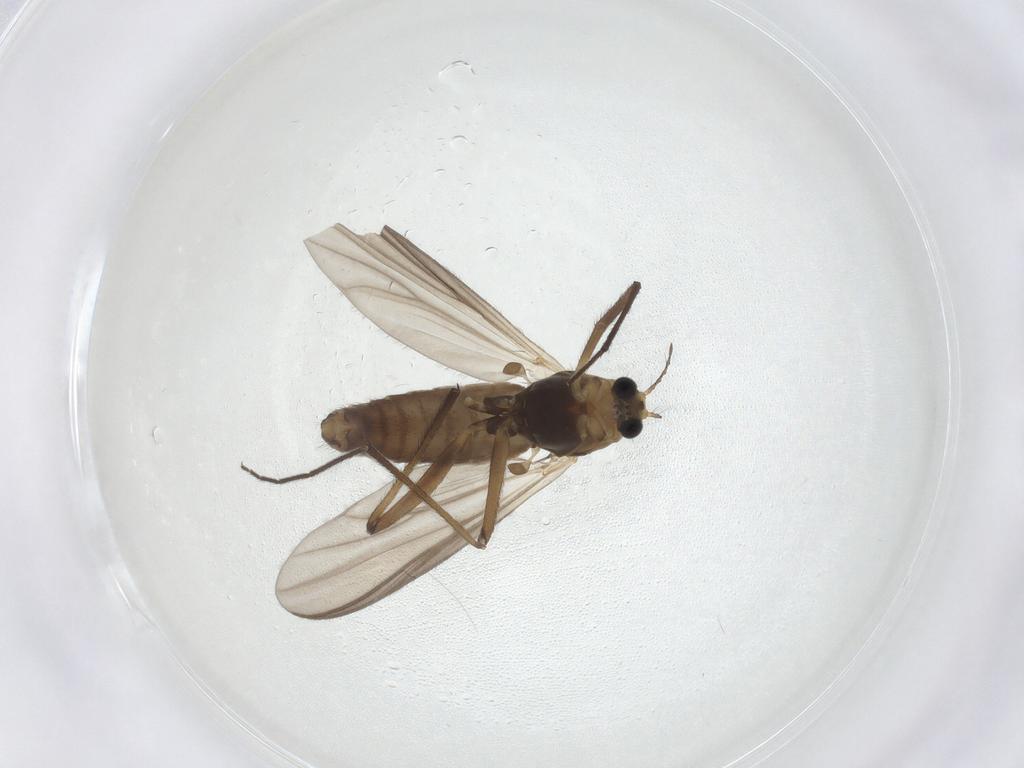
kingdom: Animalia
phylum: Arthropoda
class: Insecta
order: Diptera
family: Chironomidae
